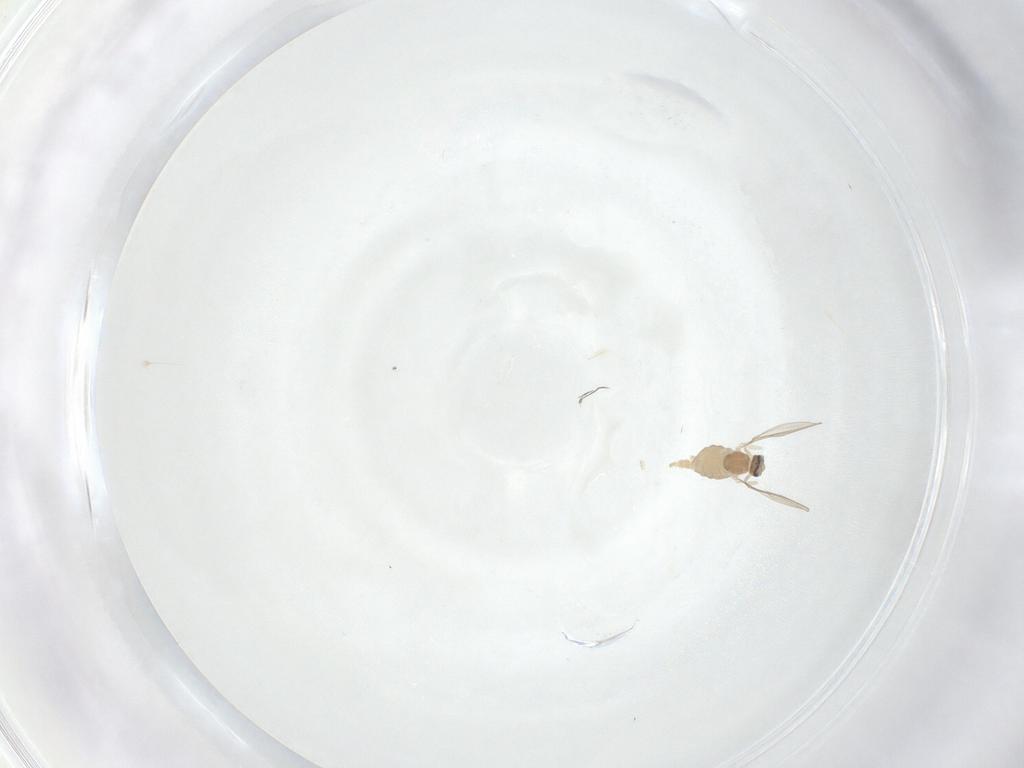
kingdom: Animalia
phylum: Arthropoda
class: Insecta
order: Diptera
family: Cecidomyiidae
